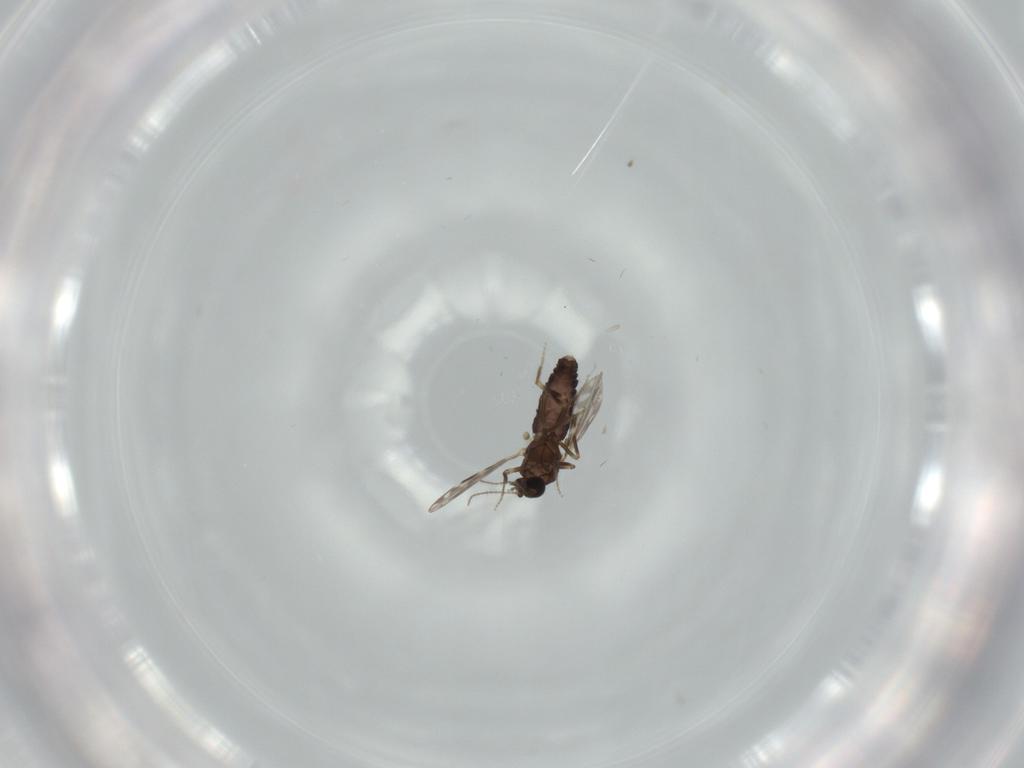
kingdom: Animalia
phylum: Arthropoda
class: Insecta
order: Diptera
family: Ceratopogonidae
